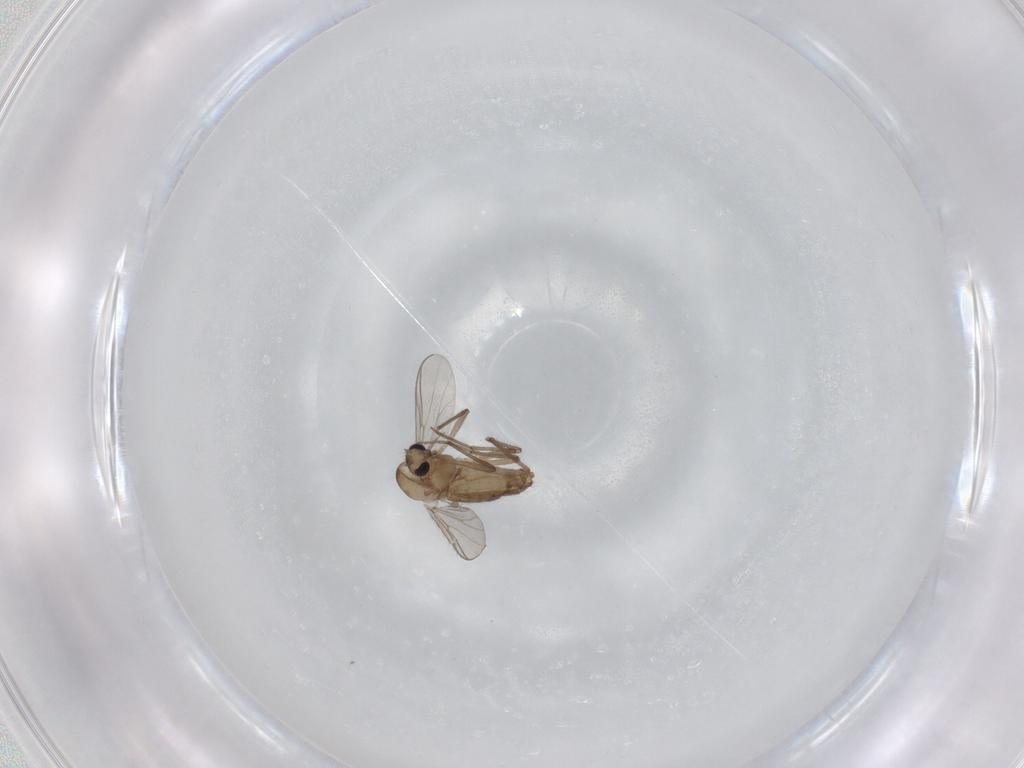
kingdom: Animalia
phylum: Arthropoda
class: Insecta
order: Diptera
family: Chironomidae
